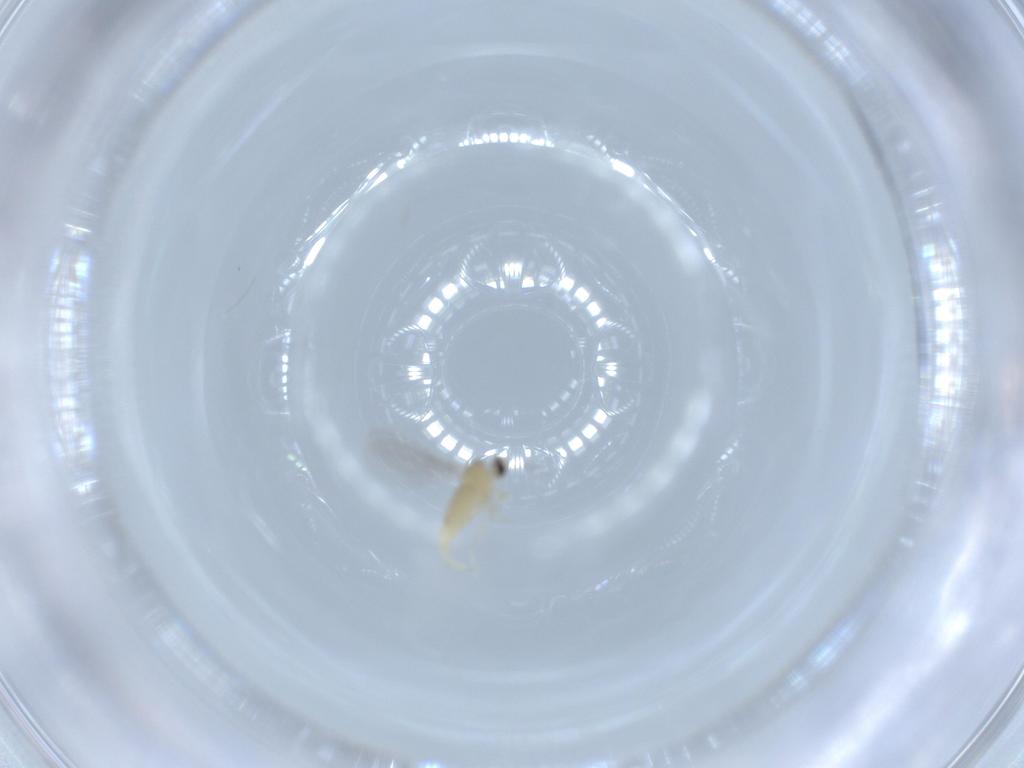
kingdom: Animalia
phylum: Arthropoda
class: Insecta
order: Diptera
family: Cecidomyiidae
